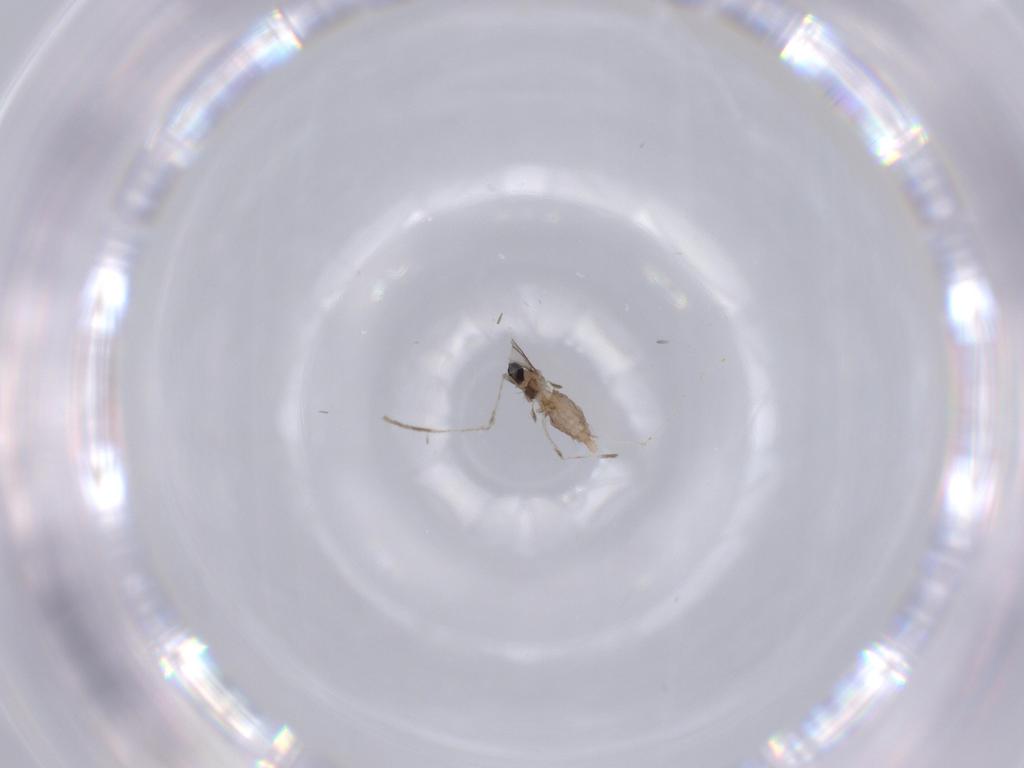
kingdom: Animalia
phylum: Arthropoda
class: Insecta
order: Diptera
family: Cecidomyiidae
